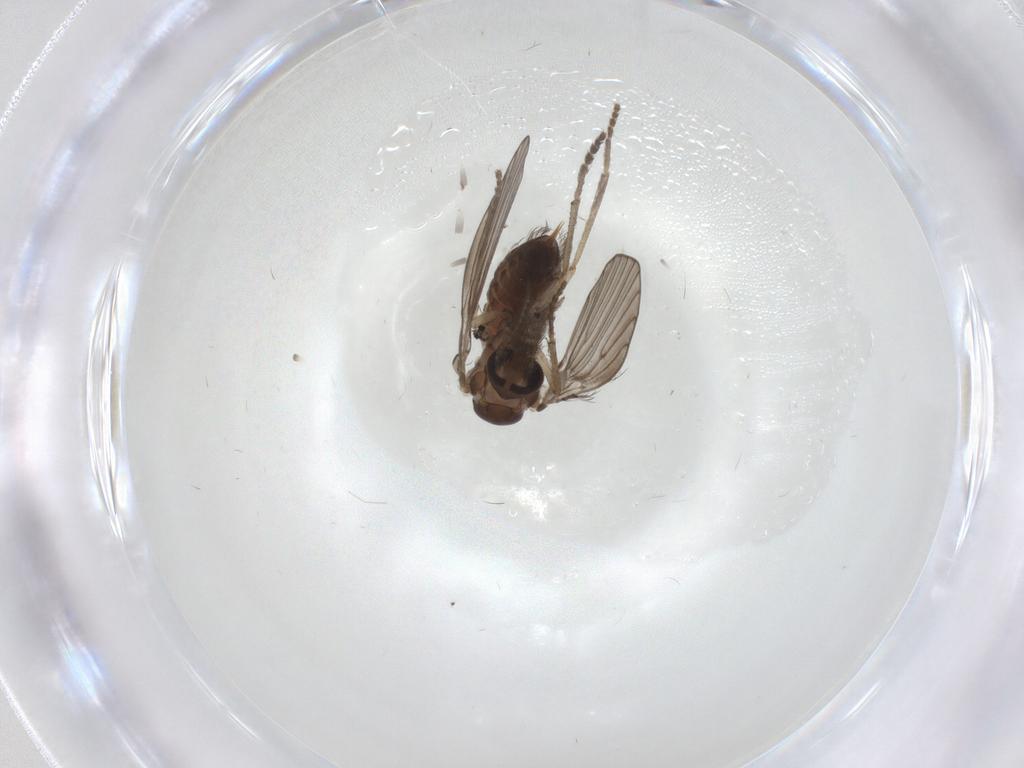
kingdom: Animalia
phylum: Arthropoda
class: Insecta
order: Diptera
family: Psychodidae
